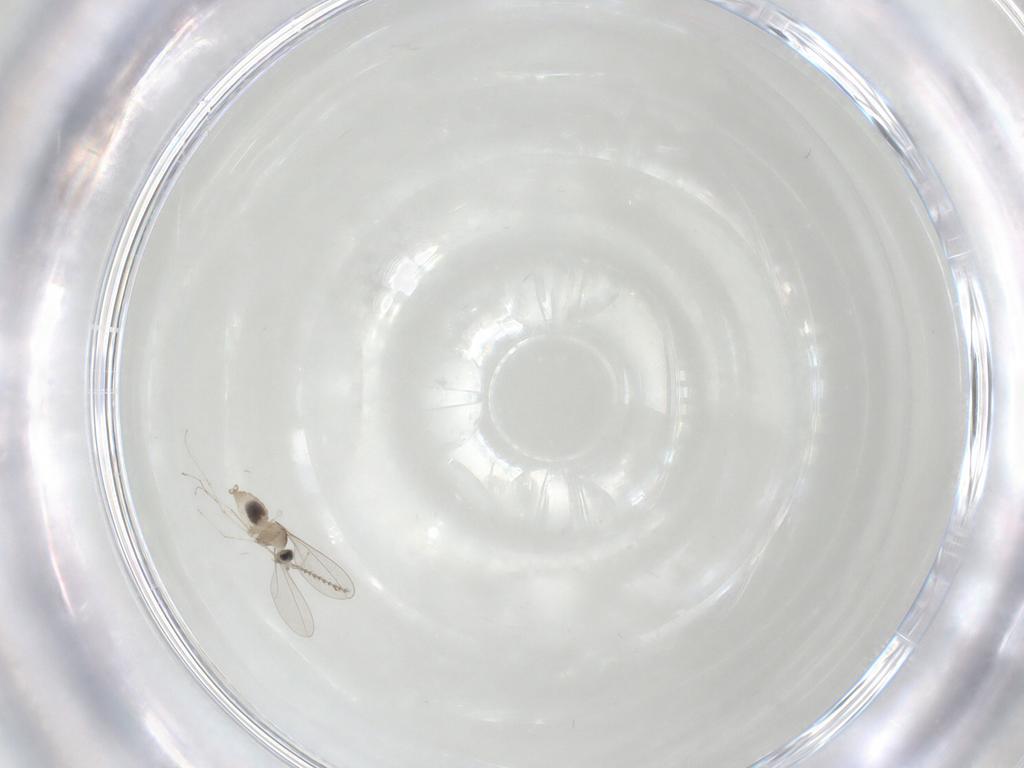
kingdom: Animalia
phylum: Arthropoda
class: Insecta
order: Diptera
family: Cecidomyiidae
